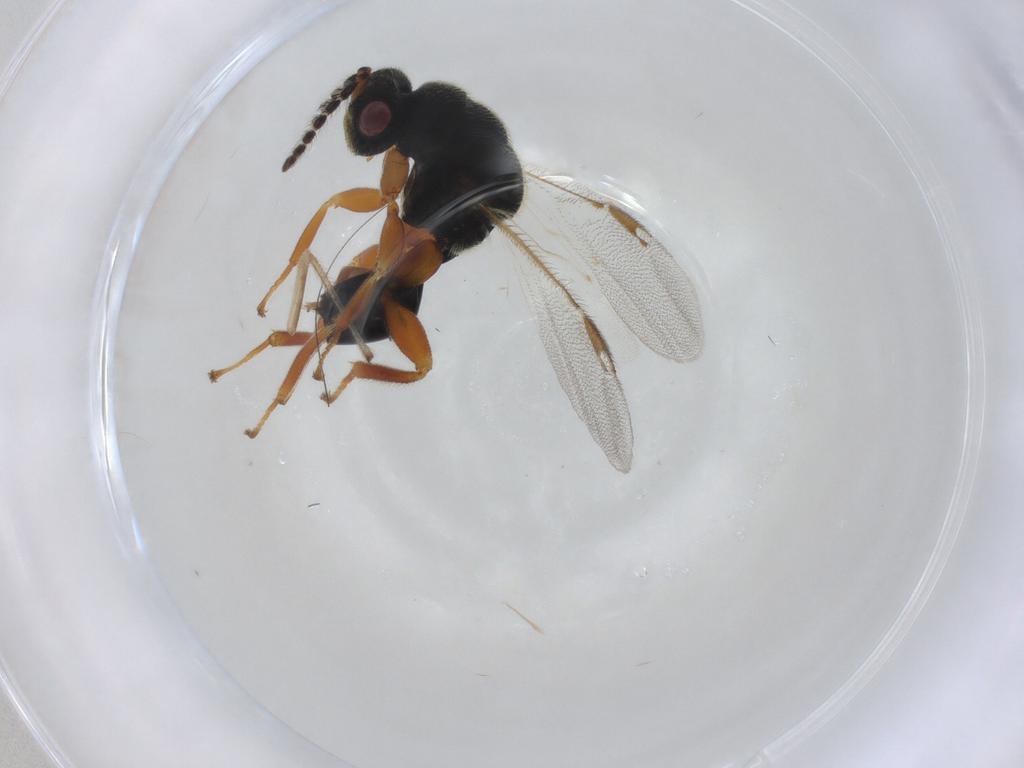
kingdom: Animalia
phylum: Arthropoda
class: Insecta
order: Hymenoptera
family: Eurytomidae
